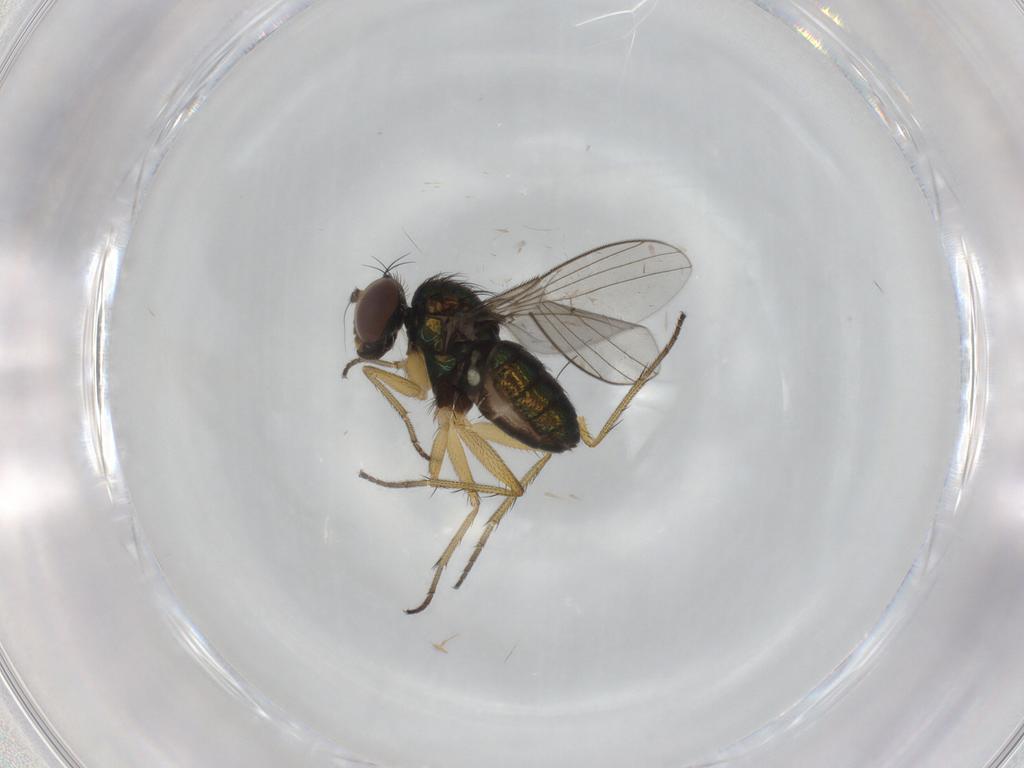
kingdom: Animalia
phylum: Arthropoda
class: Insecta
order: Diptera
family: Dolichopodidae
